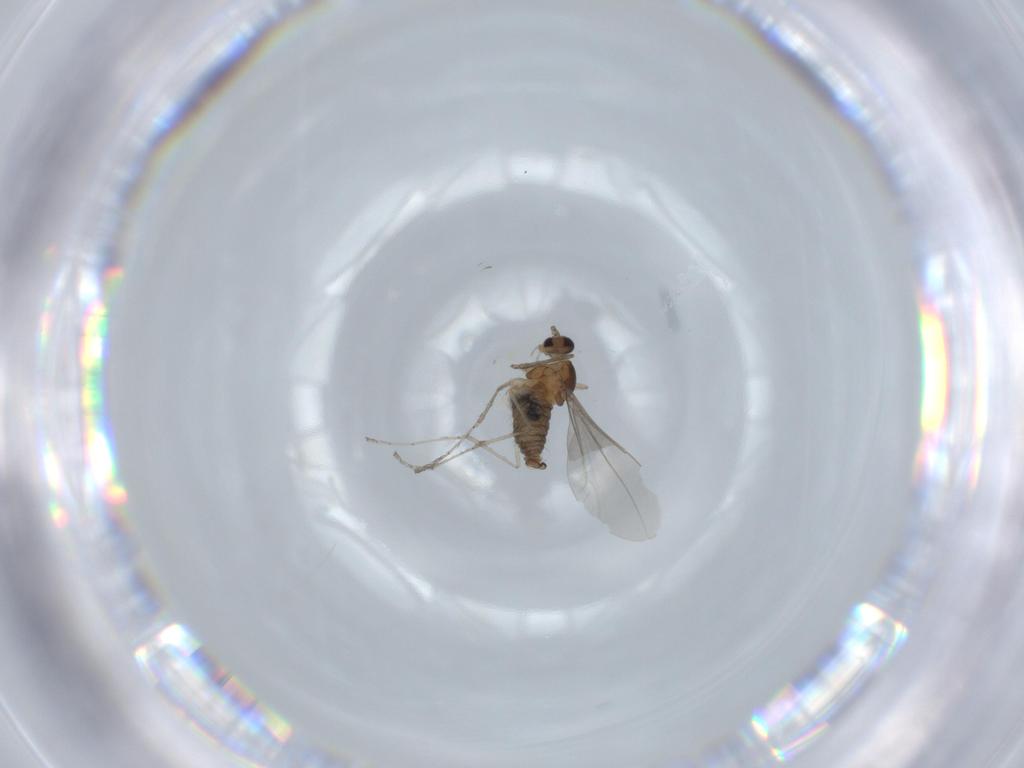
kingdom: Animalia
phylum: Arthropoda
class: Insecta
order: Diptera
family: Cecidomyiidae
